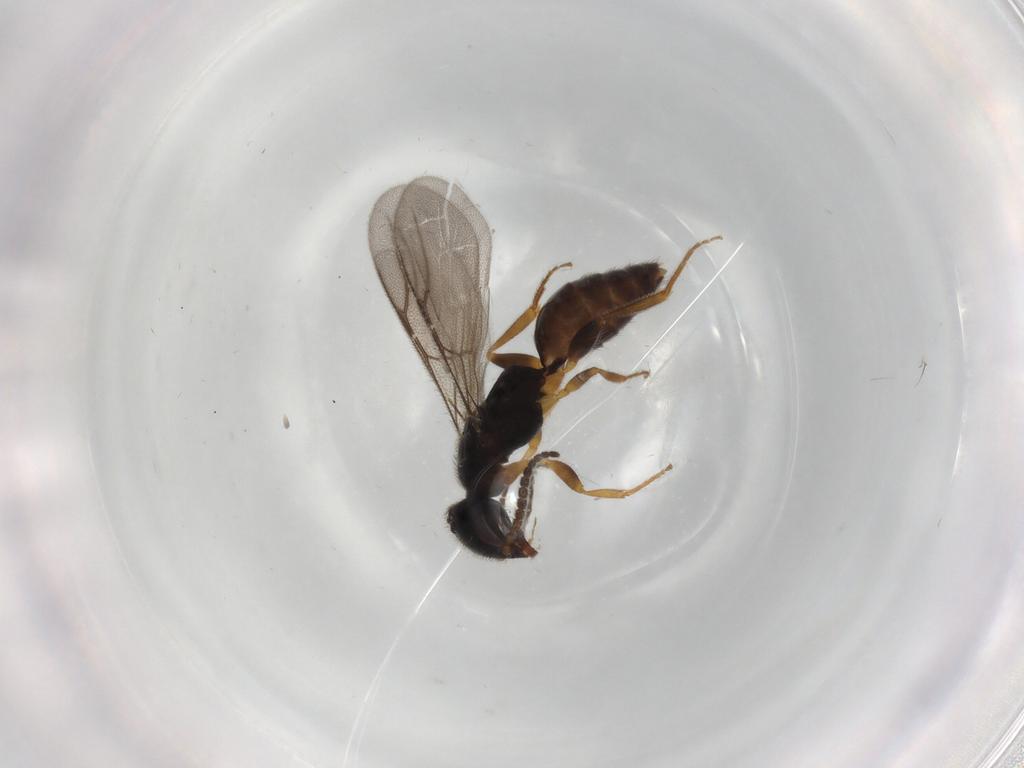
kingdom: Animalia
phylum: Arthropoda
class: Insecta
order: Hymenoptera
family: Bethylidae
